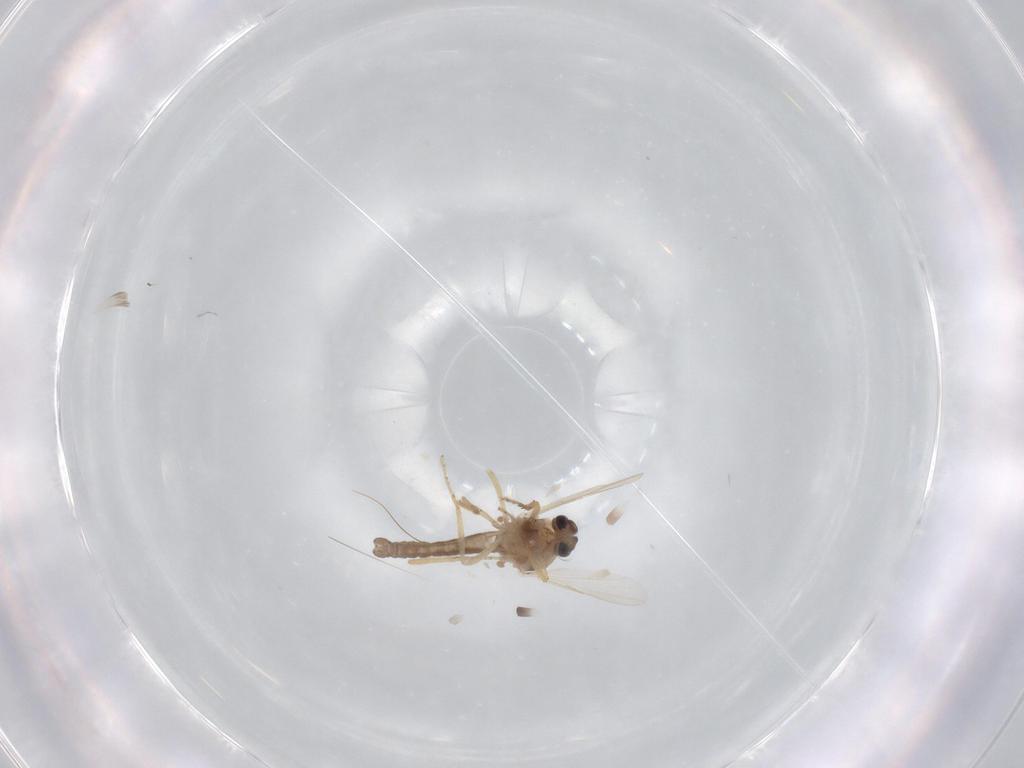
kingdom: Animalia
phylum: Arthropoda
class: Insecta
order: Diptera
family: Ceratopogonidae
